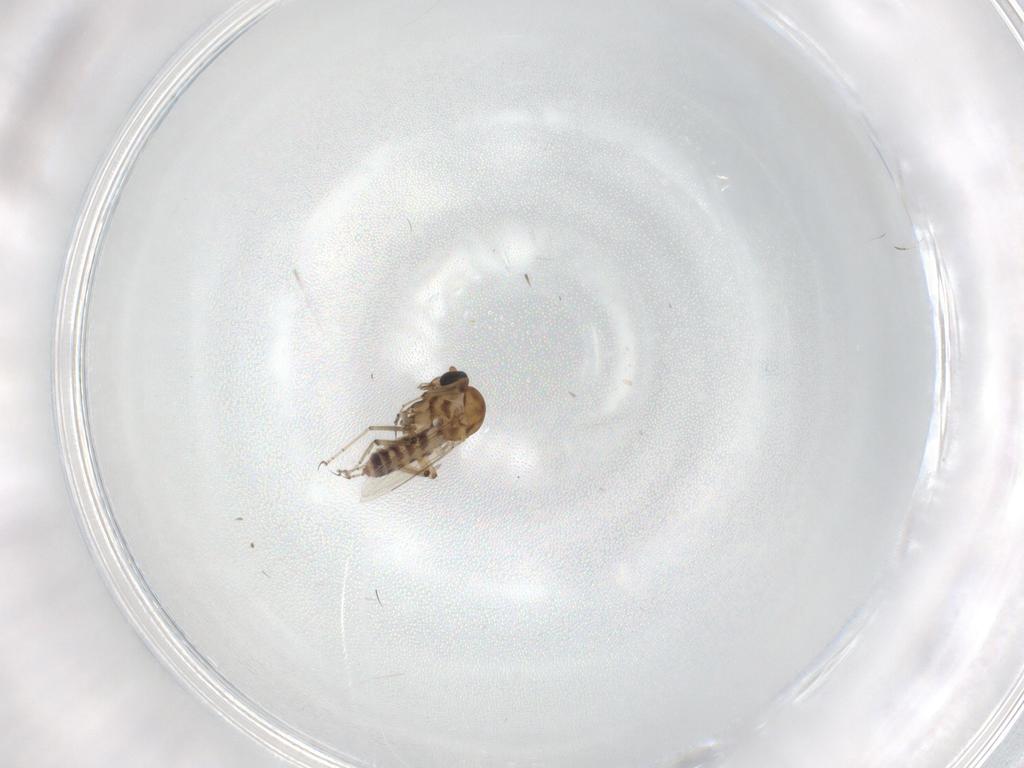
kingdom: Animalia
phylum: Arthropoda
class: Insecta
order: Diptera
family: Ceratopogonidae
